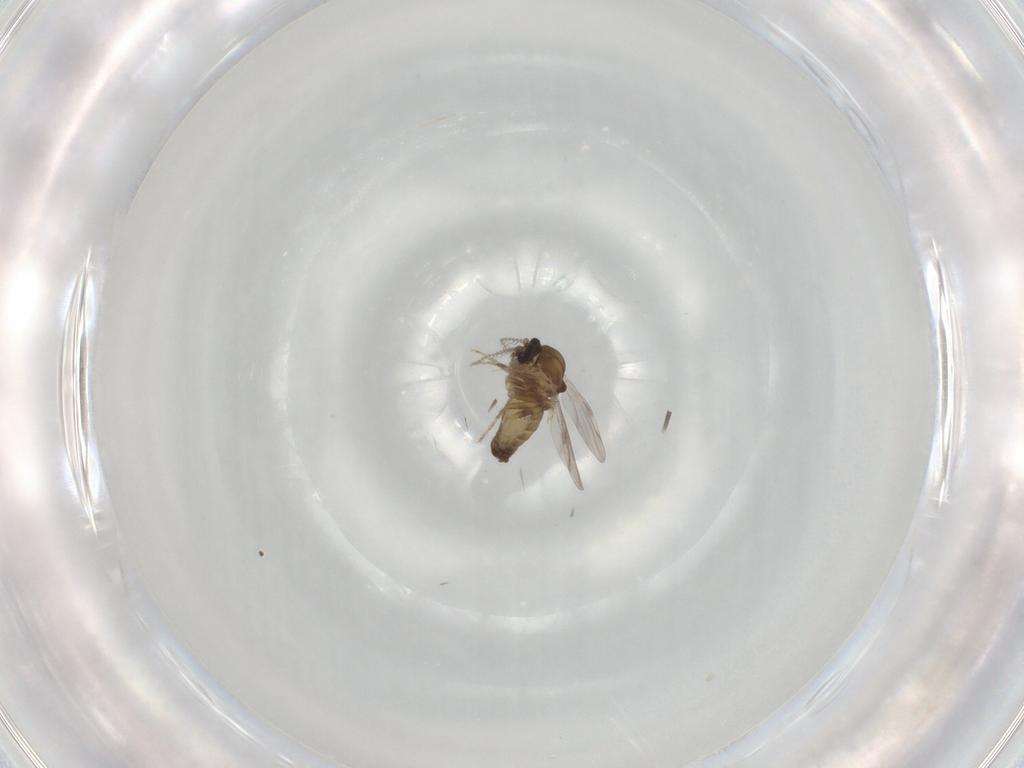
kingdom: Animalia
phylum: Arthropoda
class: Insecta
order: Diptera
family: Ceratopogonidae
